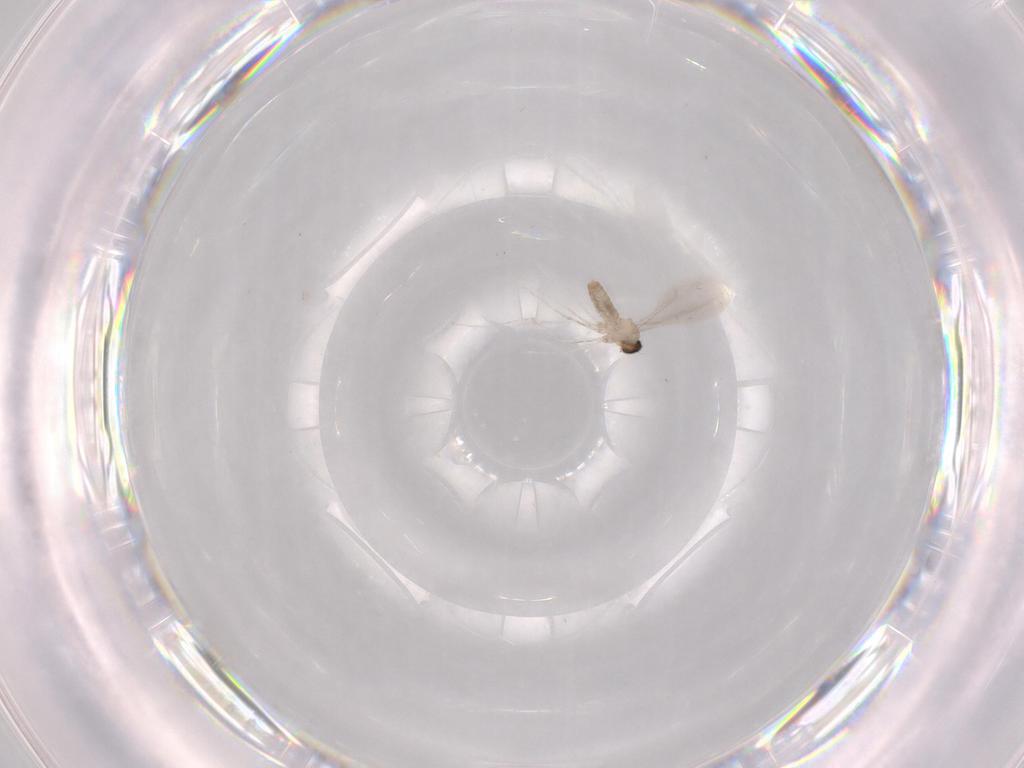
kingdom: Animalia
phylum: Arthropoda
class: Insecta
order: Diptera
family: Cecidomyiidae
